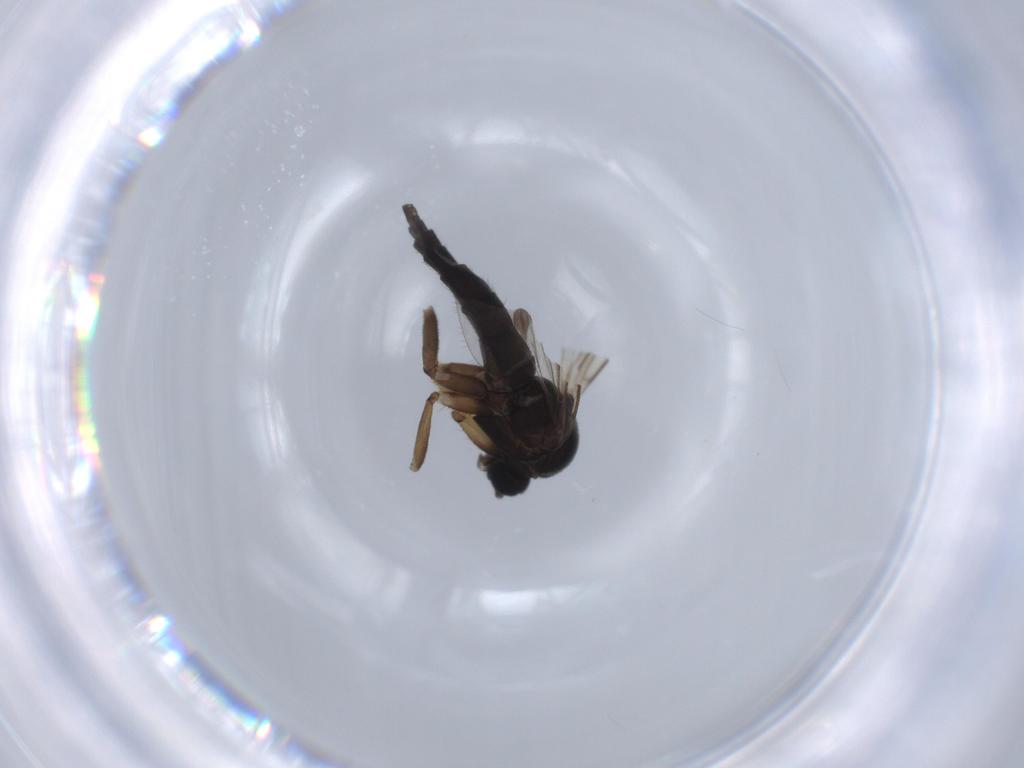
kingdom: Animalia
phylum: Arthropoda
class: Insecta
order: Diptera
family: Sciaridae
